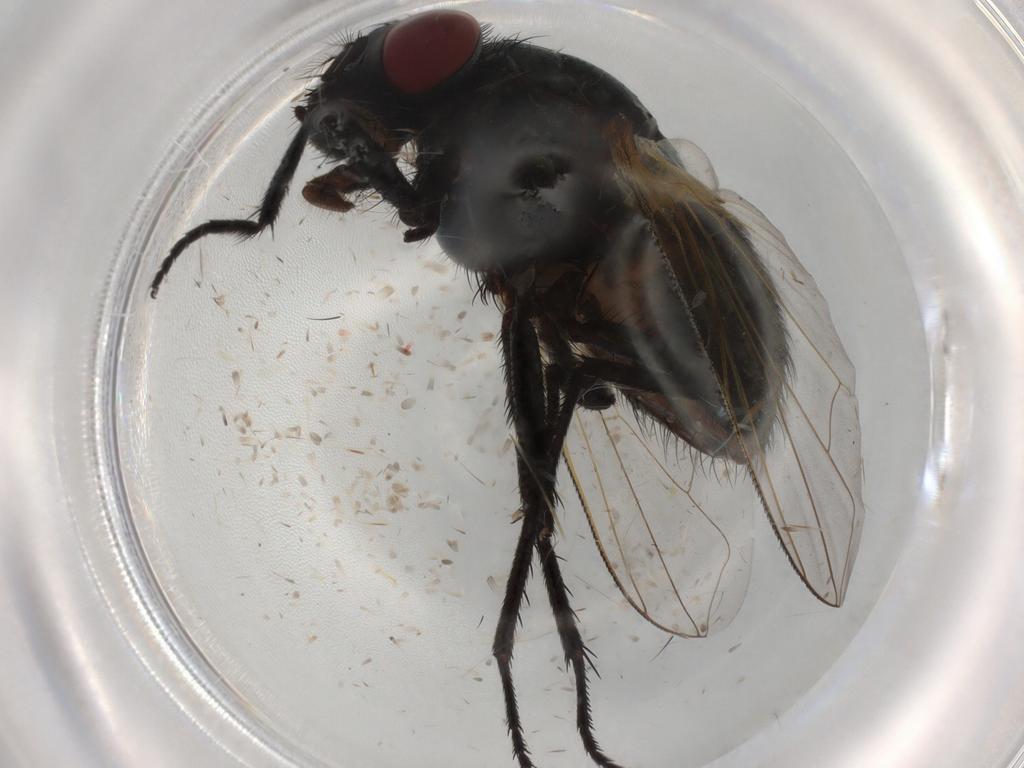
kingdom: Animalia
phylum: Arthropoda
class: Insecta
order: Diptera
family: Muscidae
